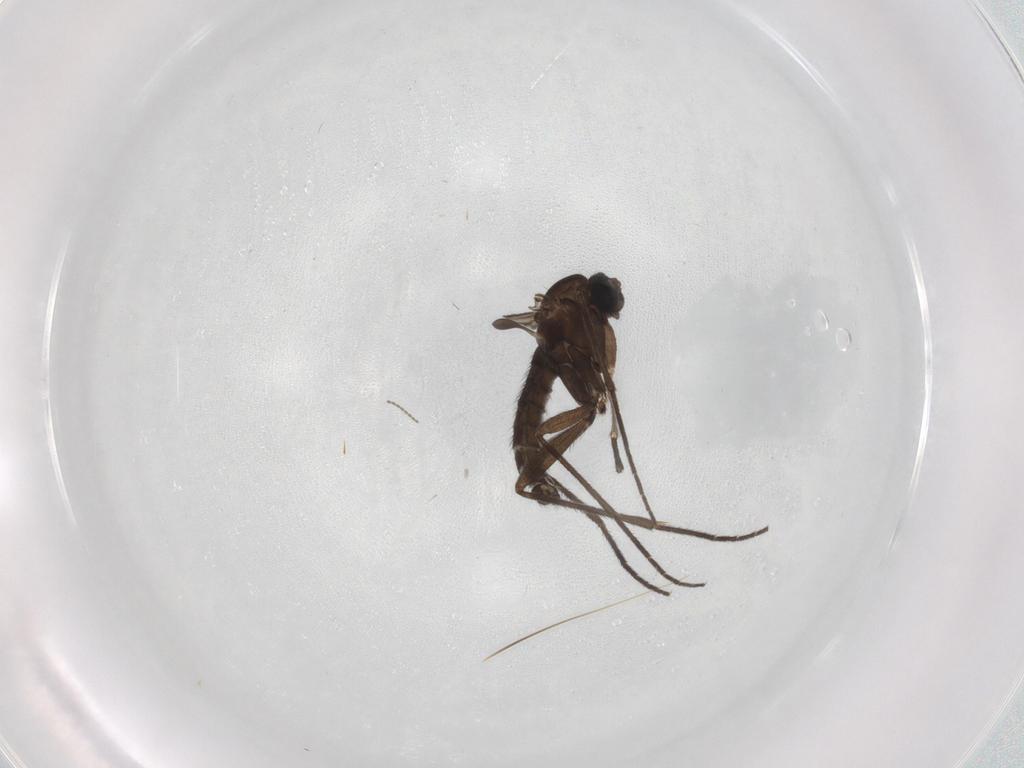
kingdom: Animalia
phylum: Arthropoda
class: Insecta
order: Diptera
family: Sciaridae
